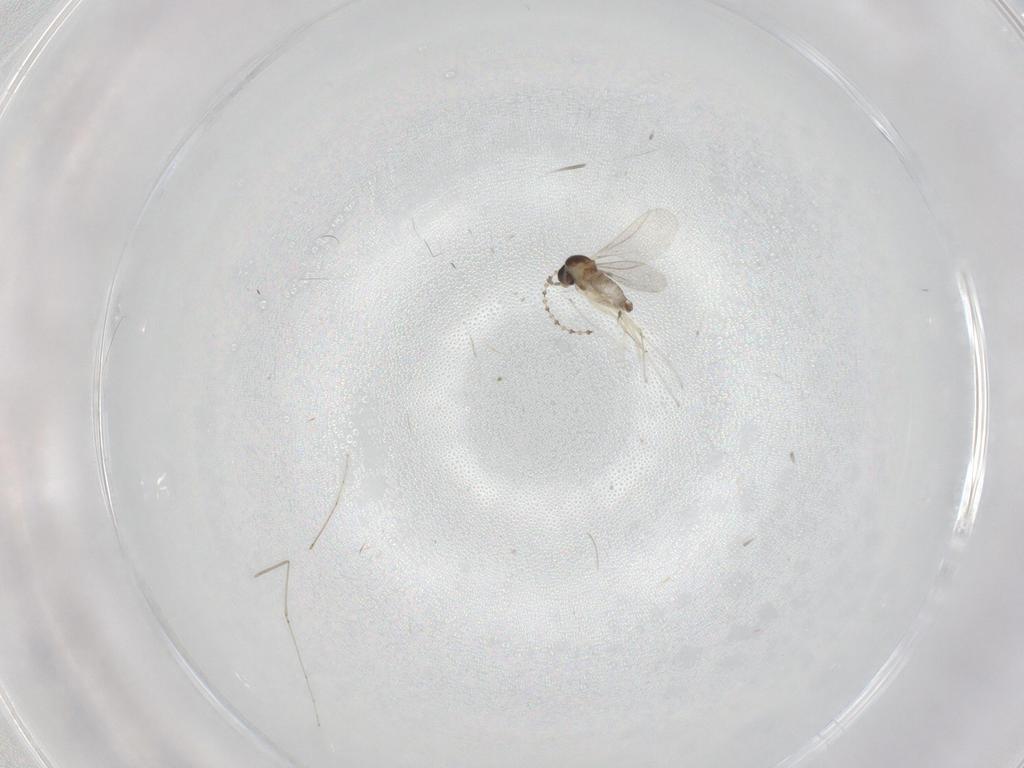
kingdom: Animalia
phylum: Arthropoda
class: Insecta
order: Diptera
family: Cecidomyiidae
